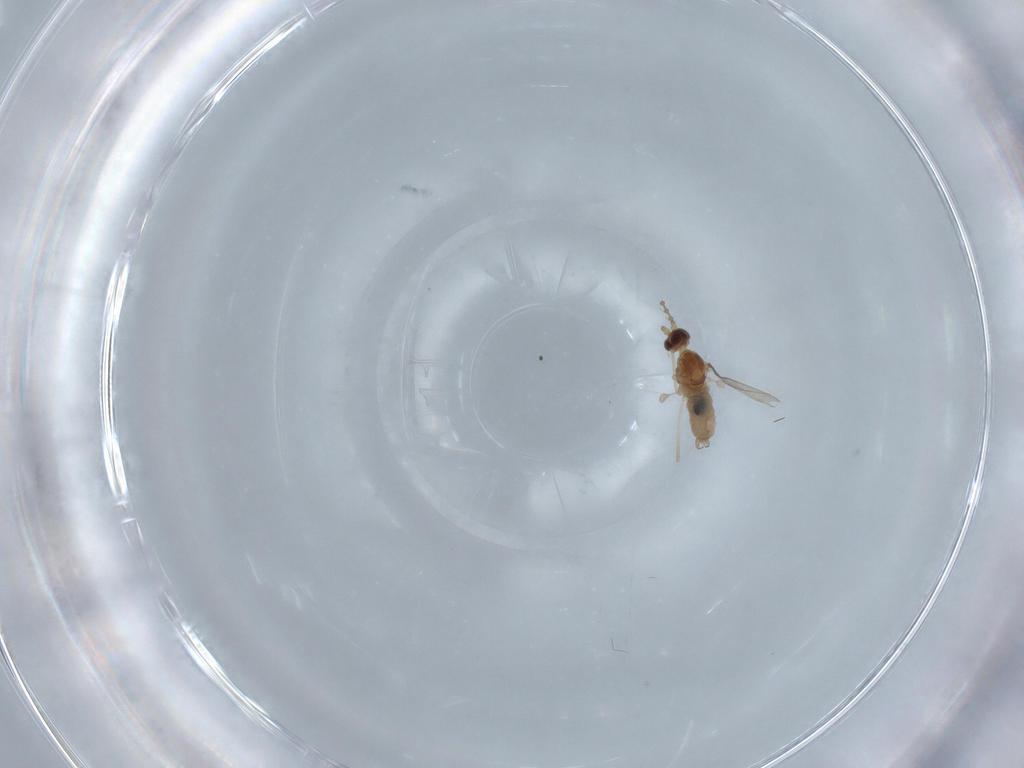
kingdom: Animalia
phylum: Arthropoda
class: Insecta
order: Diptera
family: Cecidomyiidae
